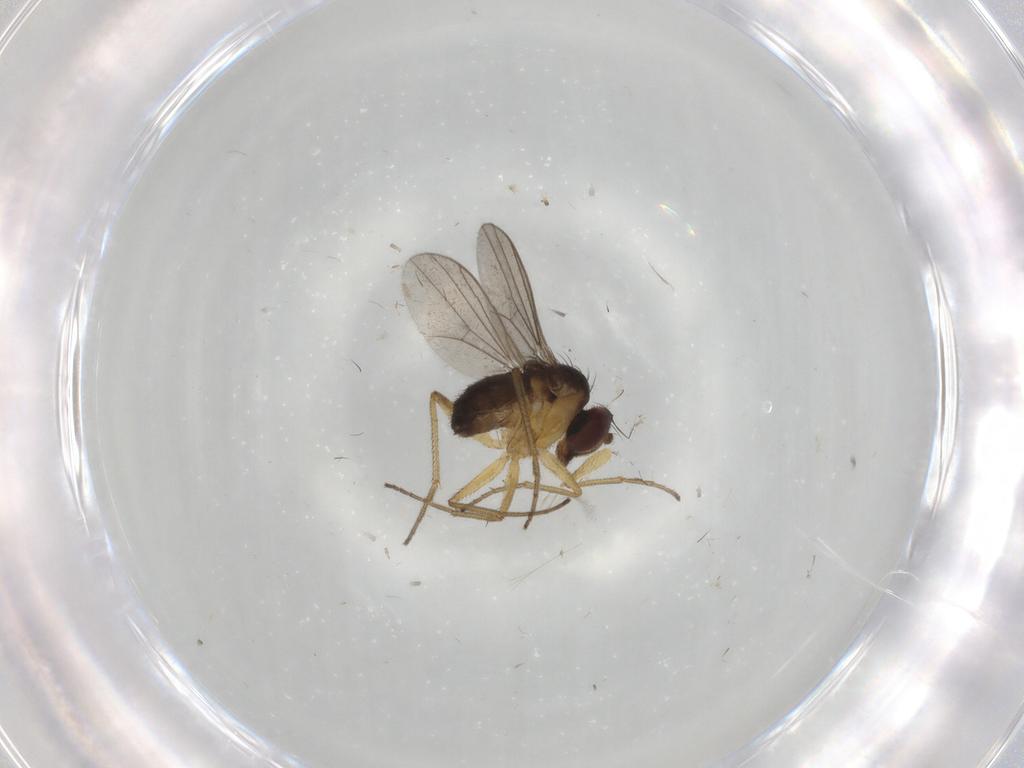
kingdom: Animalia
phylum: Arthropoda
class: Insecta
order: Diptera
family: Dolichopodidae
